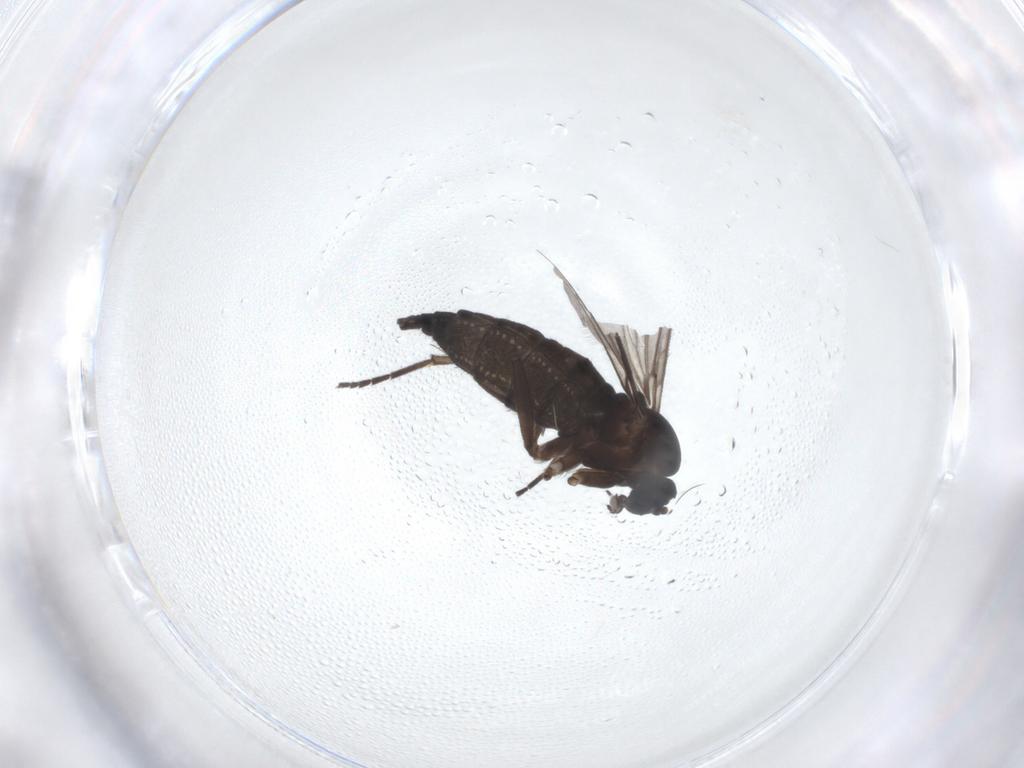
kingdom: Animalia
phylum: Arthropoda
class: Insecta
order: Diptera
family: Sciaridae
